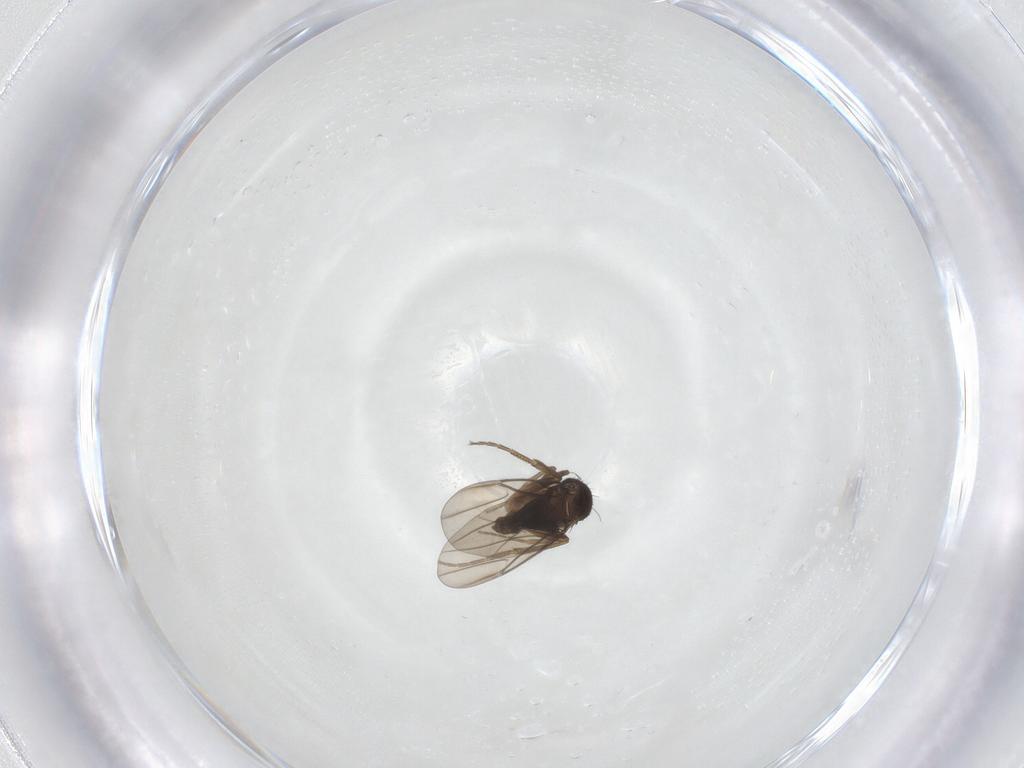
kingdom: Animalia
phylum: Arthropoda
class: Insecta
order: Diptera
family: Phoridae
